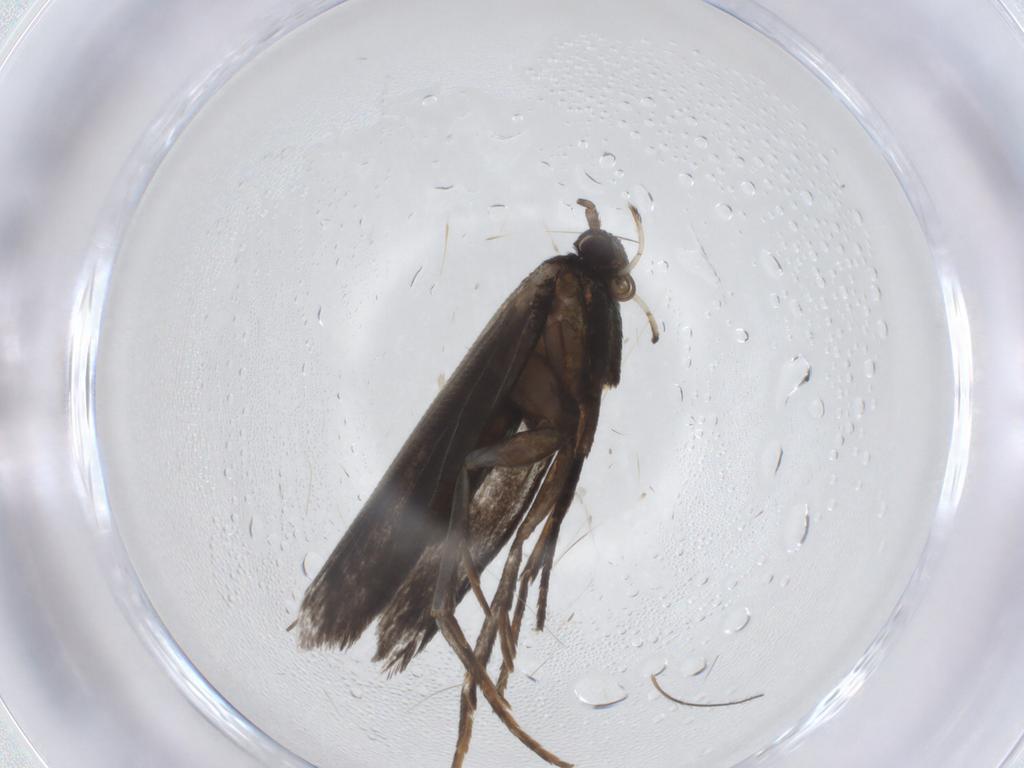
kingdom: Animalia
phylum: Arthropoda
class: Insecta
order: Lepidoptera
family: Argyresthiidae
